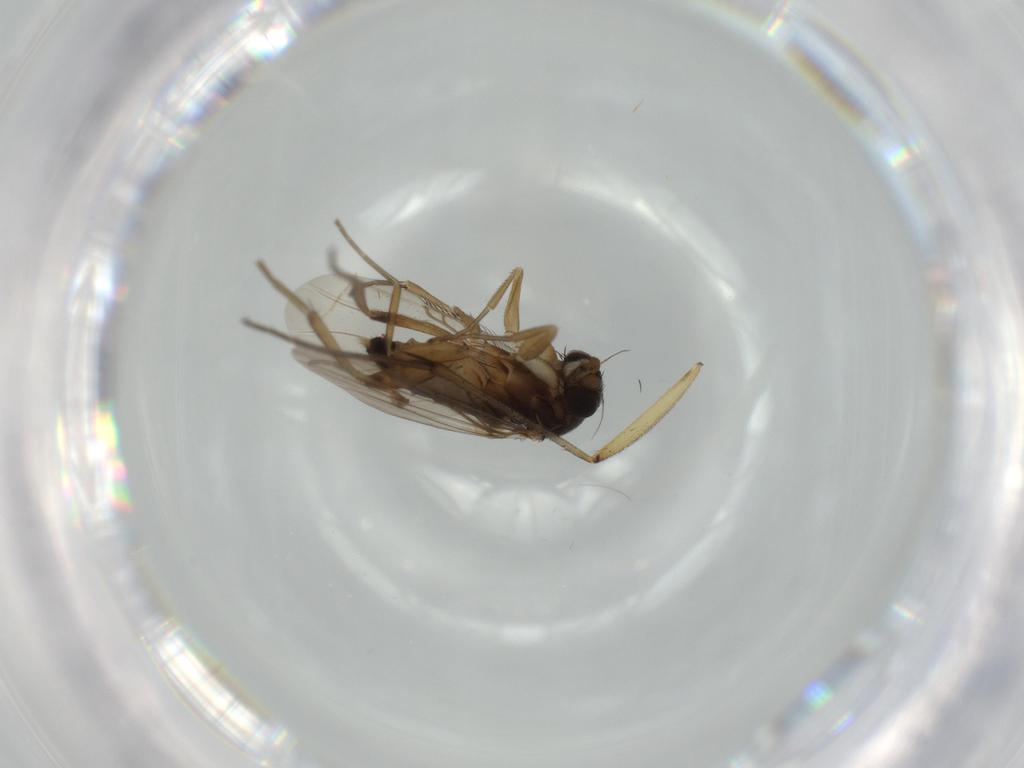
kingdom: Animalia
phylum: Arthropoda
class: Insecta
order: Diptera
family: Phoridae
